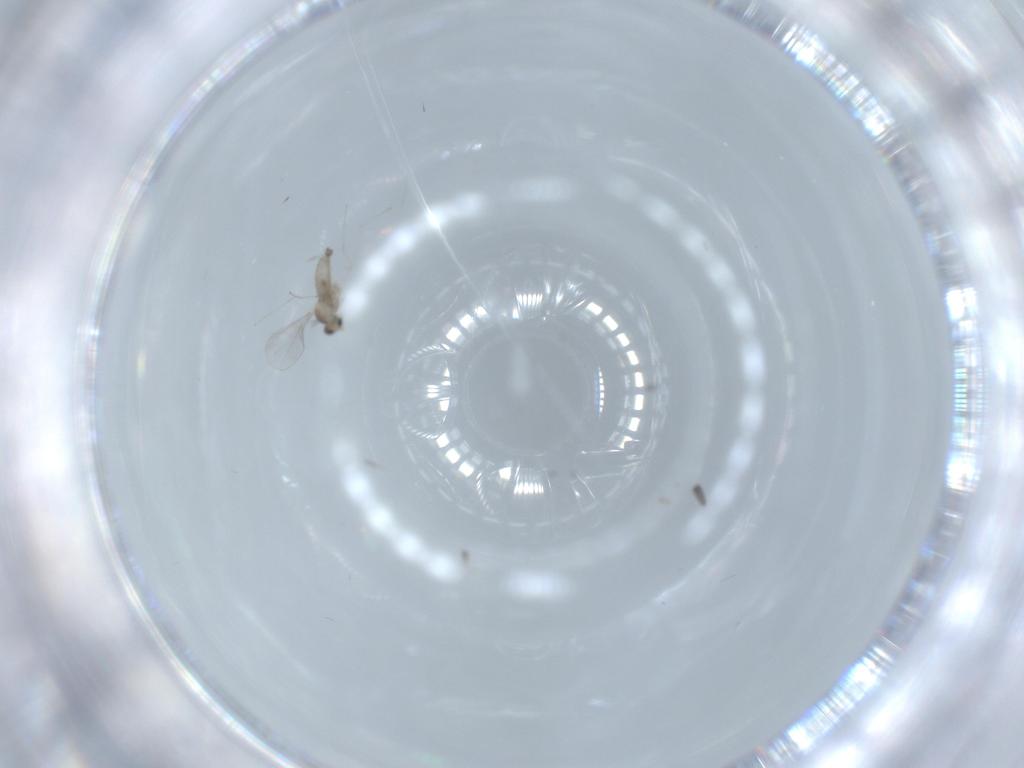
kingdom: Animalia
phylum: Arthropoda
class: Insecta
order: Diptera
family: Cecidomyiidae
